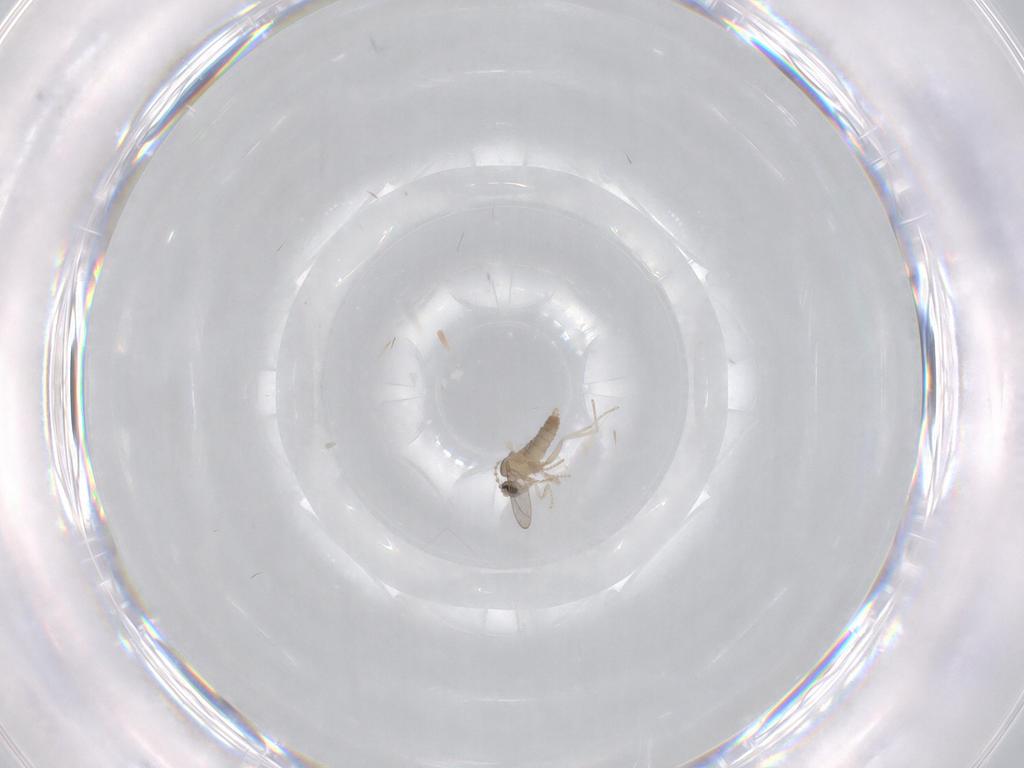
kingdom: Animalia
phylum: Arthropoda
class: Insecta
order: Diptera
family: Cecidomyiidae
